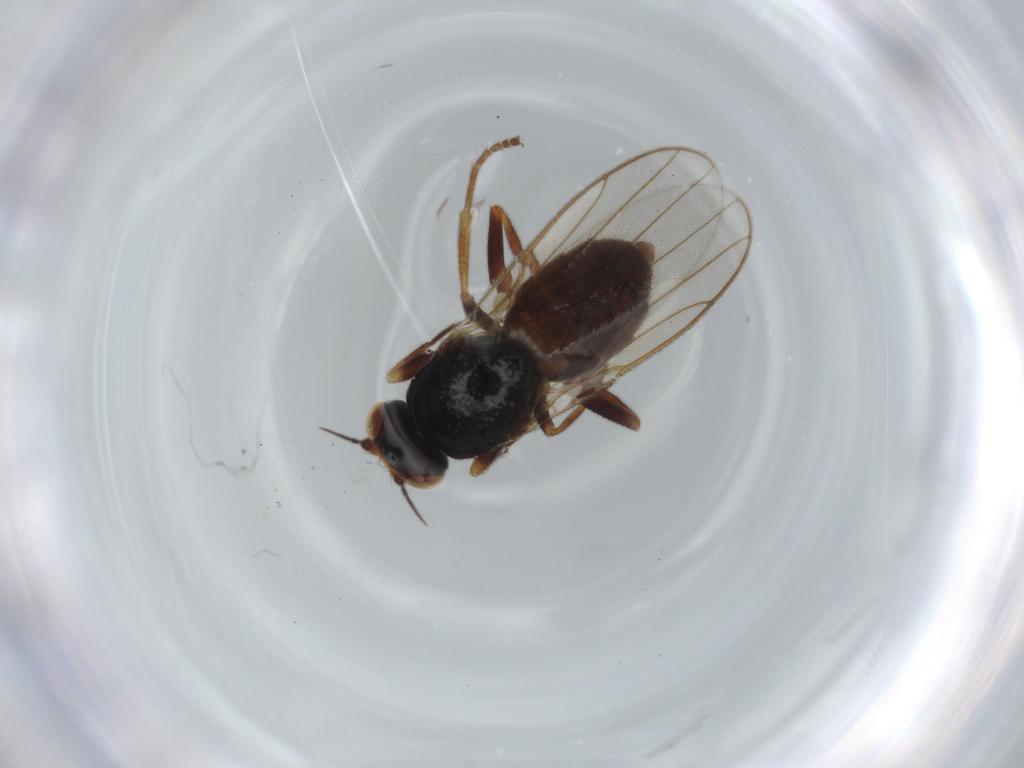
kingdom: Animalia
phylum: Arthropoda
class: Insecta
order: Diptera
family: Chloropidae
